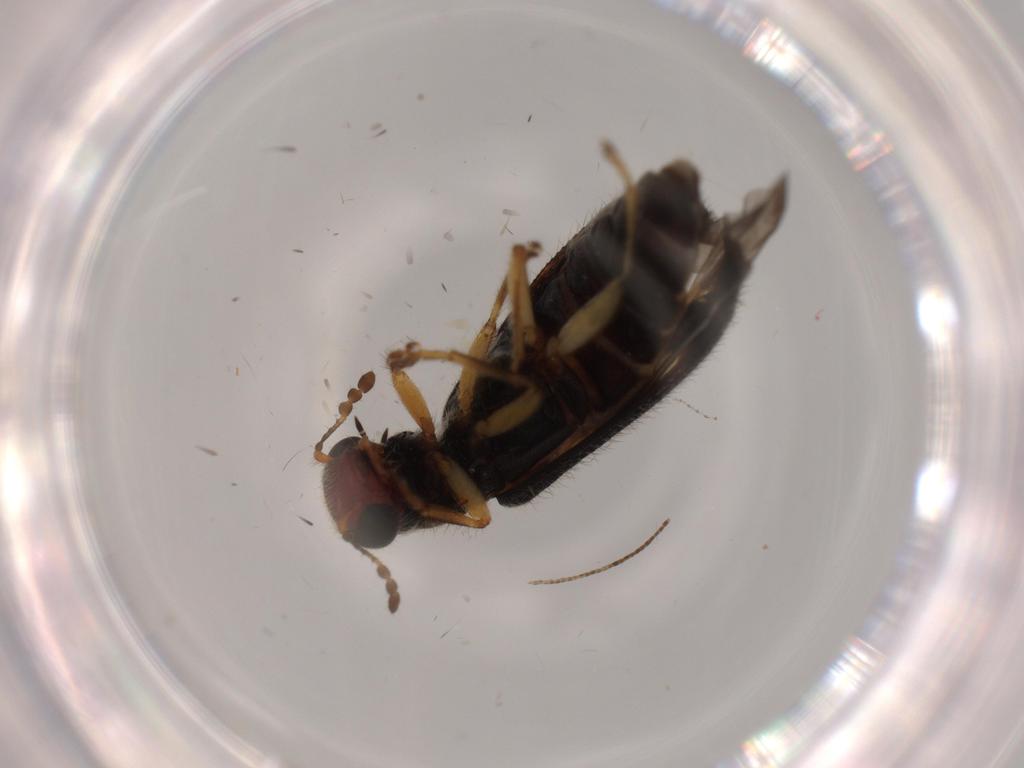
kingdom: Animalia
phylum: Arthropoda
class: Insecta
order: Coleoptera
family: Cleridae
